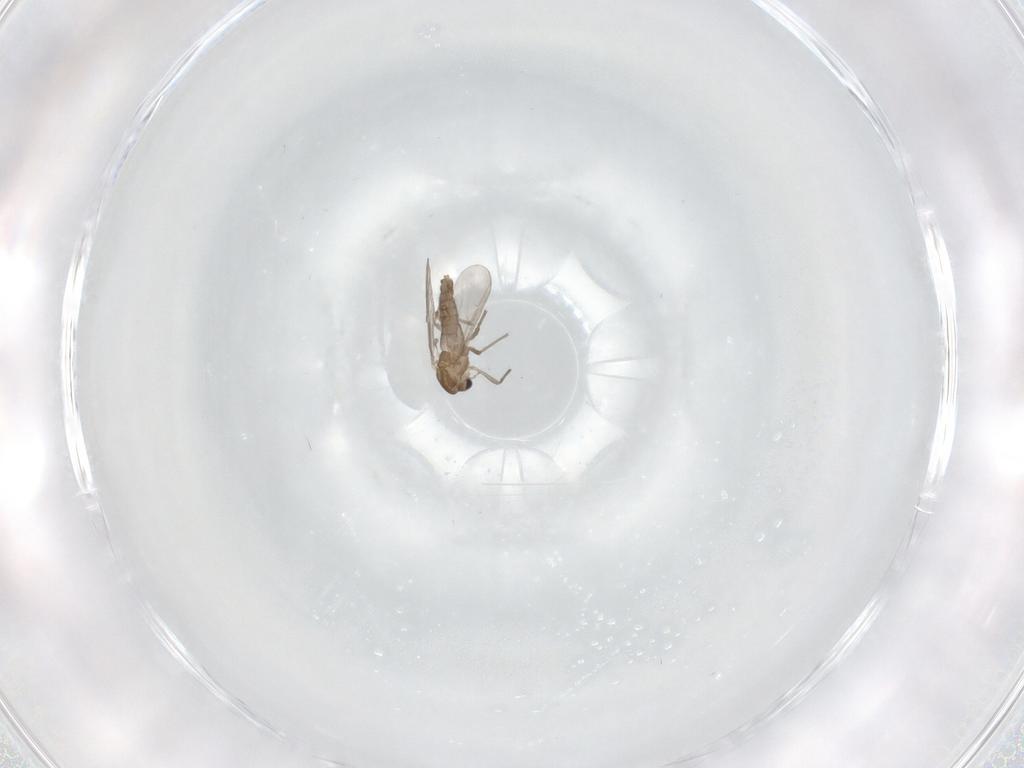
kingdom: Animalia
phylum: Arthropoda
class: Insecta
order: Diptera
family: Chironomidae
